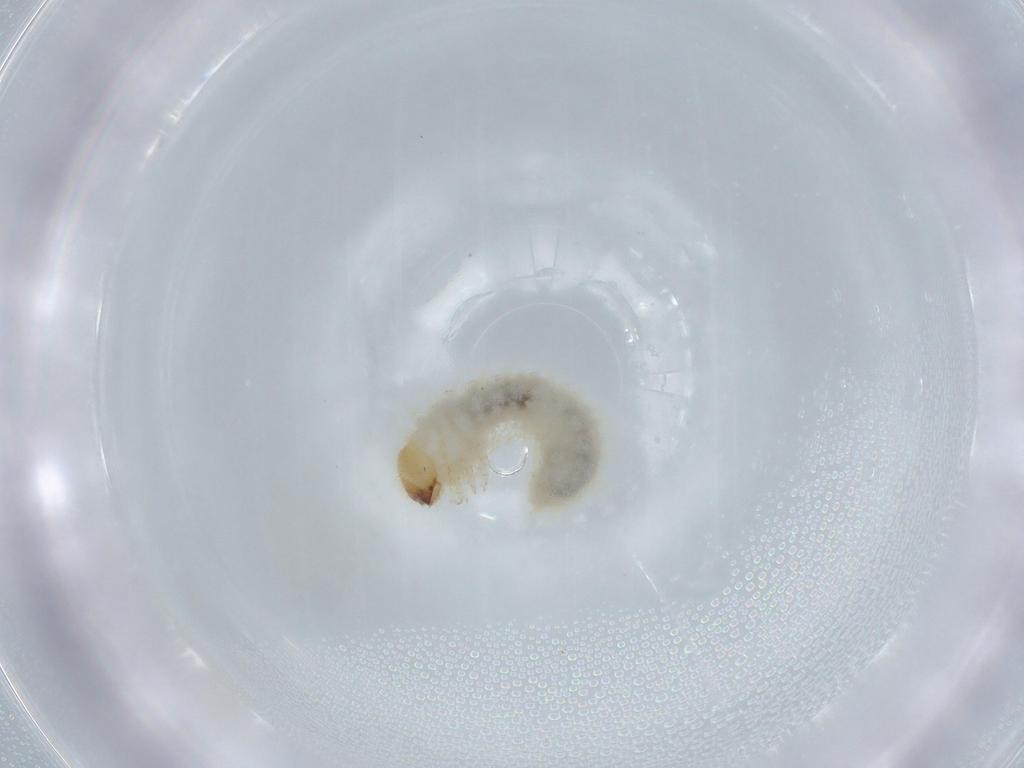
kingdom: Animalia
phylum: Arthropoda
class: Insecta
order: Coleoptera
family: Ptinidae
